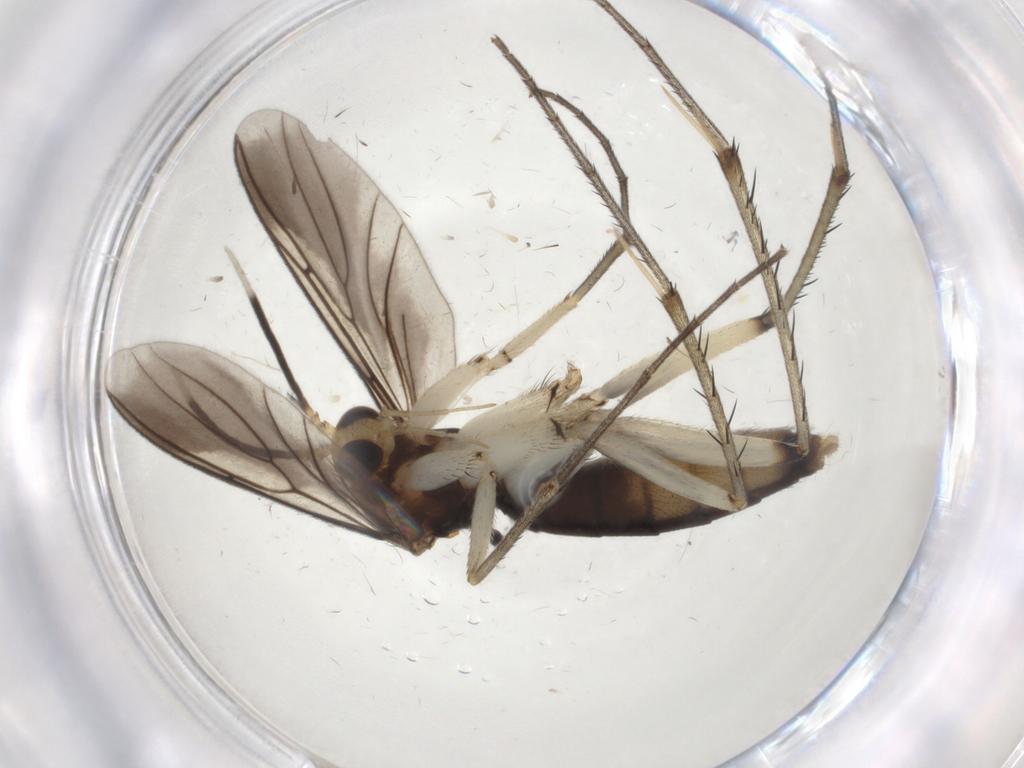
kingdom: Animalia
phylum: Arthropoda
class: Insecta
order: Diptera
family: Mycetophilidae
